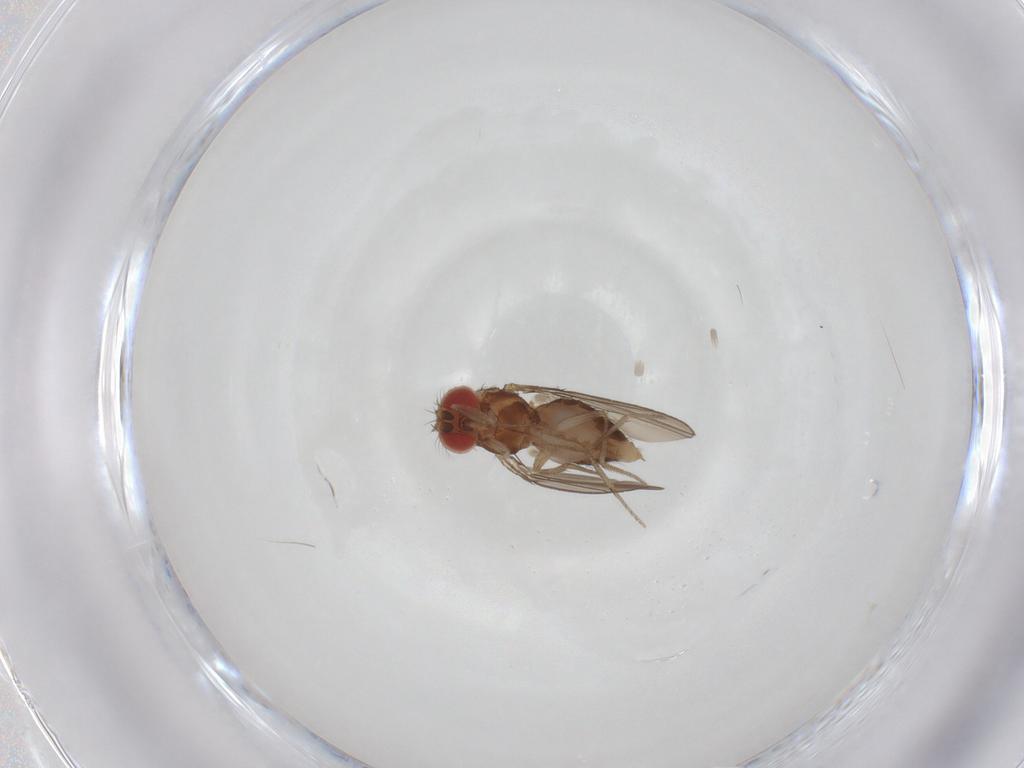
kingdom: Animalia
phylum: Arthropoda
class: Insecta
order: Diptera
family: Drosophilidae
